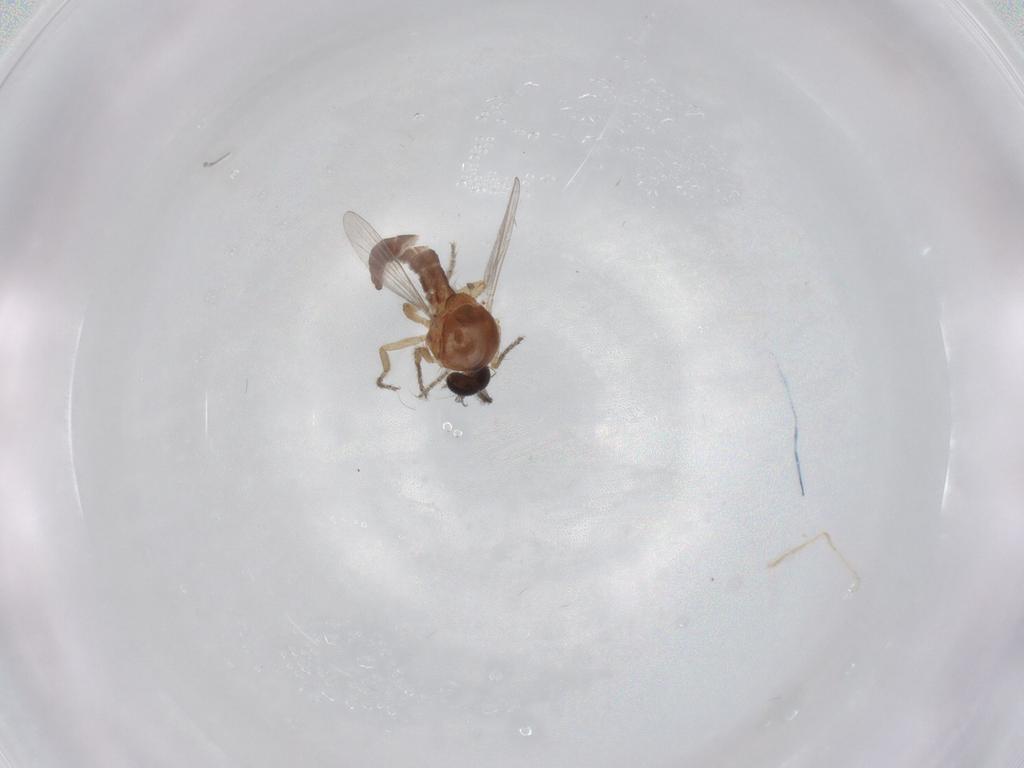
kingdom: Animalia
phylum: Arthropoda
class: Insecta
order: Diptera
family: Ceratopogonidae
